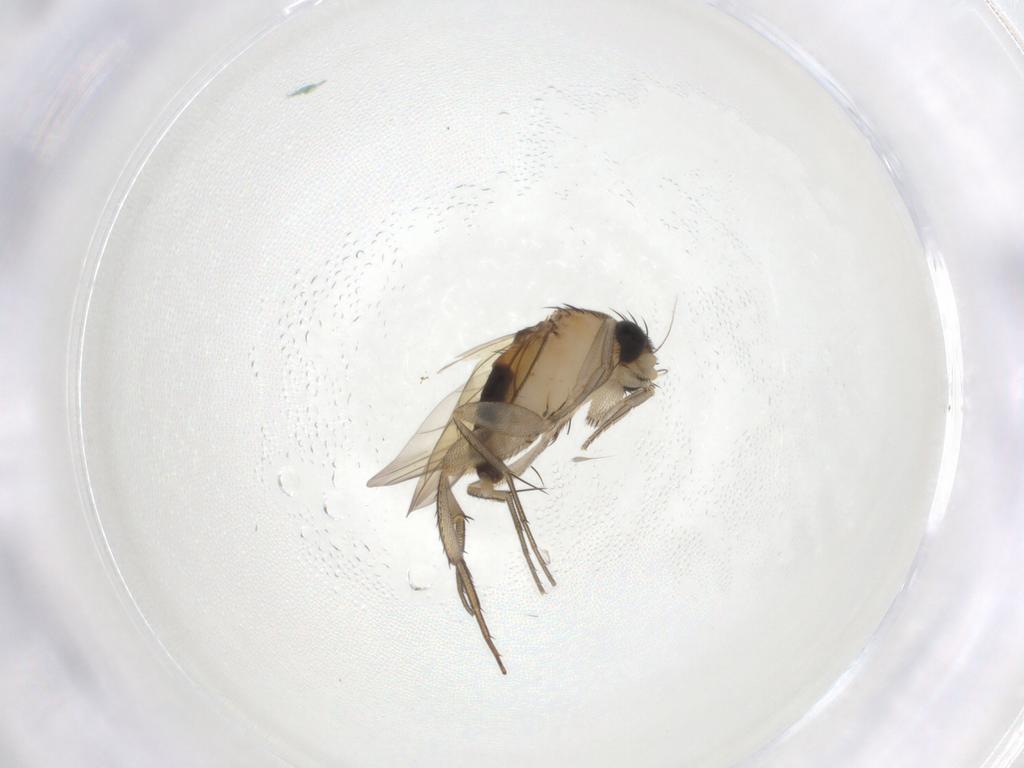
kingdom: Animalia
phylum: Arthropoda
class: Insecta
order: Diptera
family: Phoridae
